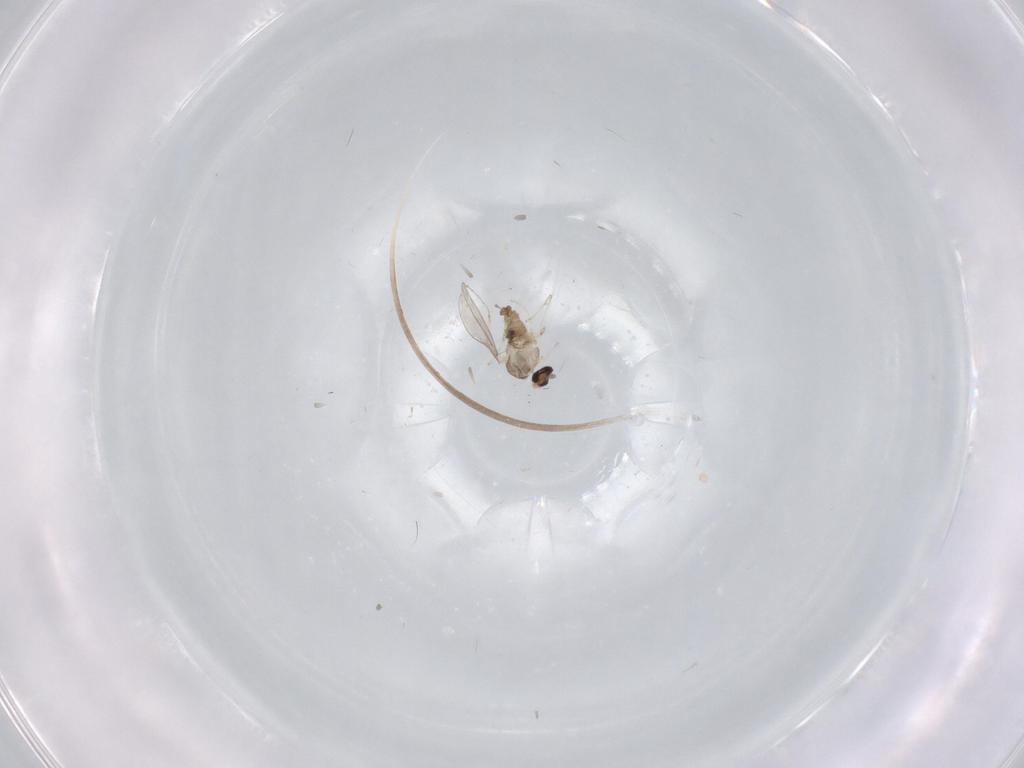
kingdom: Animalia
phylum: Arthropoda
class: Insecta
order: Diptera
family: Cecidomyiidae
